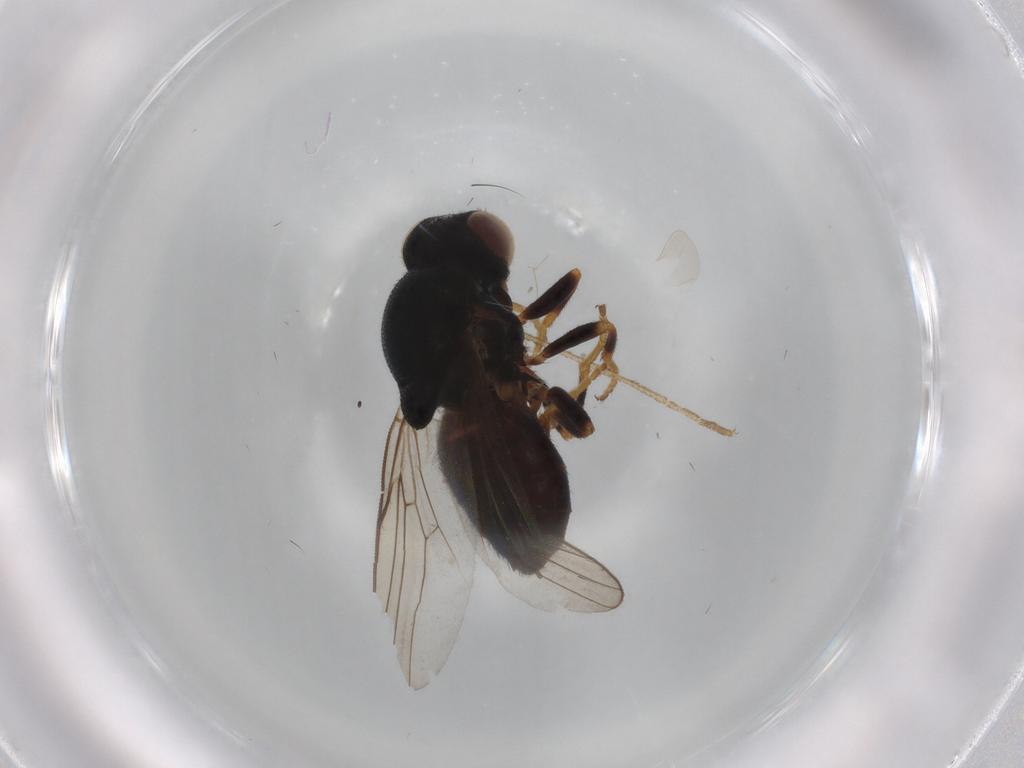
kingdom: Animalia
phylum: Arthropoda
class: Insecta
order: Diptera
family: Chloropidae
